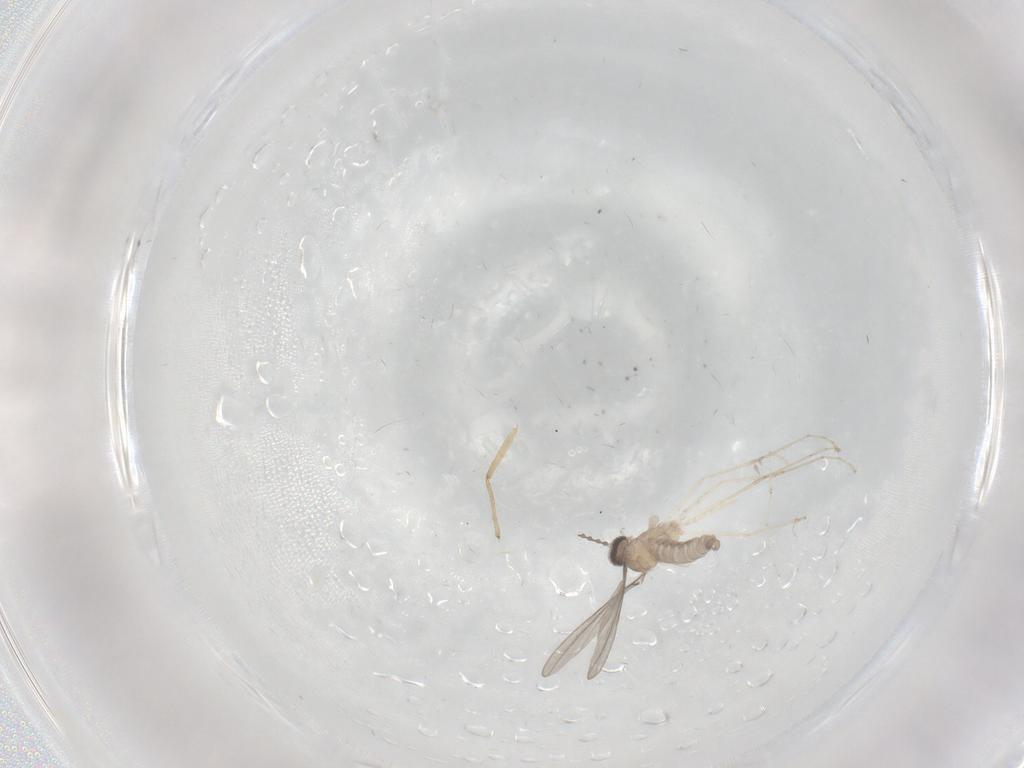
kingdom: Animalia
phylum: Arthropoda
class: Insecta
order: Diptera
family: Cecidomyiidae
